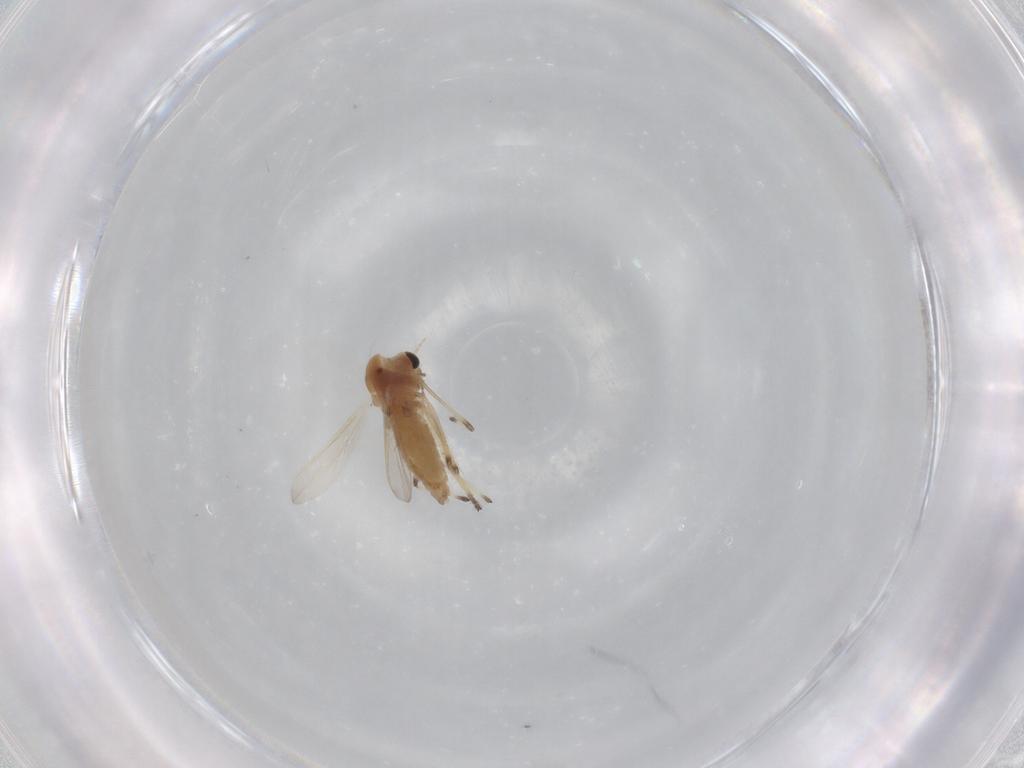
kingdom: Animalia
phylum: Arthropoda
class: Insecta
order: Diptera
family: Chironomidae
